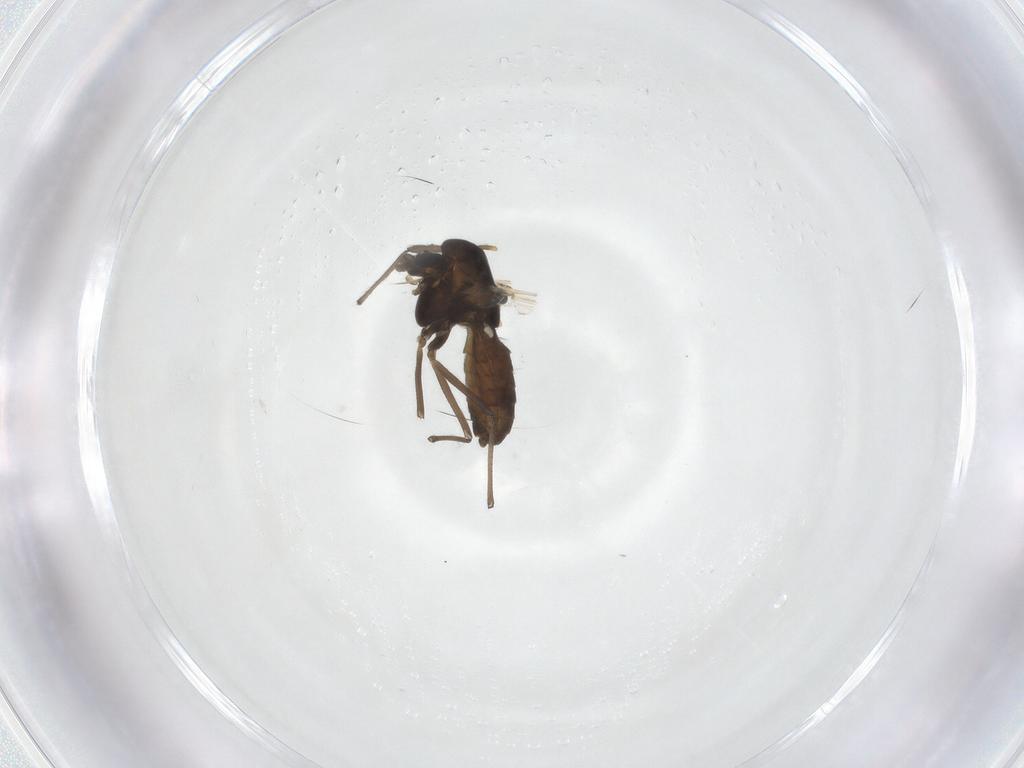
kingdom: Animalia
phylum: Arthropoda
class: Insecta
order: Diptera
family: Chironomidae
